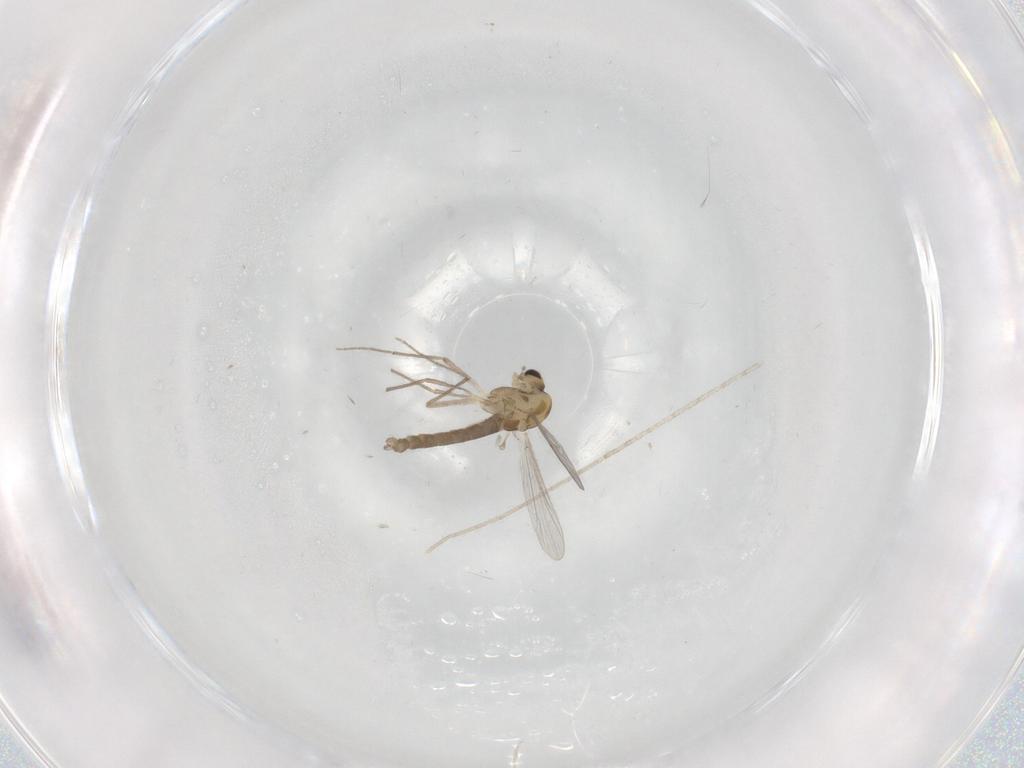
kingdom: Animalia
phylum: Arthropoda
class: Insecta
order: Diptera
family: Chironomidae
